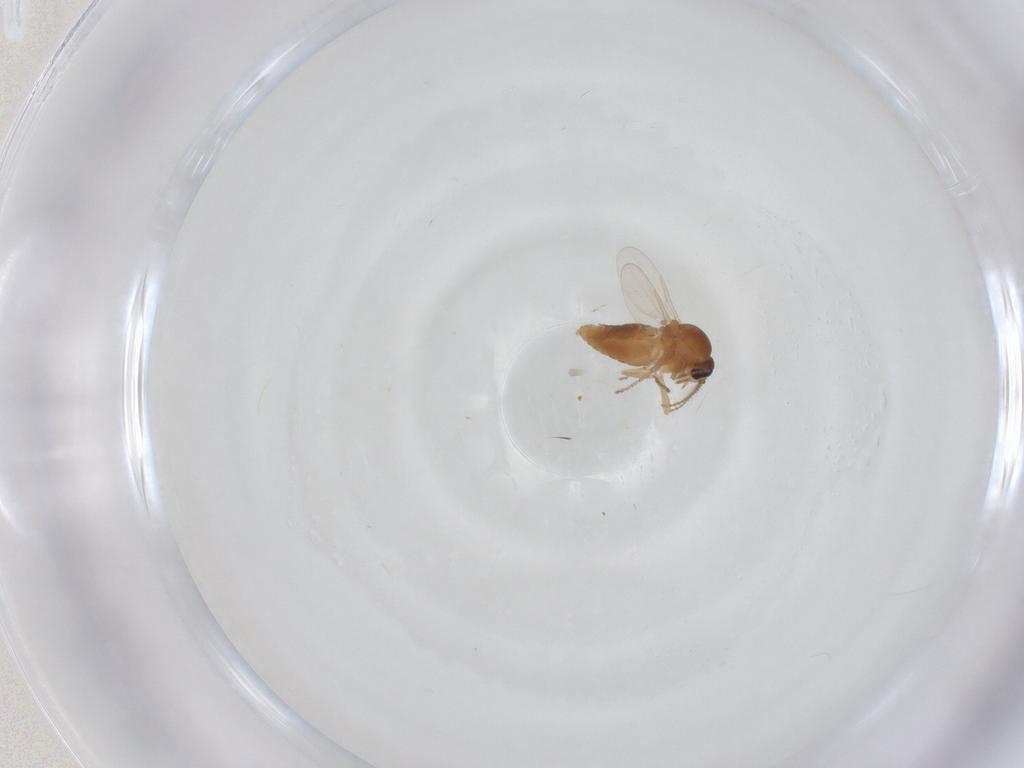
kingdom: Animalia
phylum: Arthropoda
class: Insecta
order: Diptera
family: Ceratopogonidae
